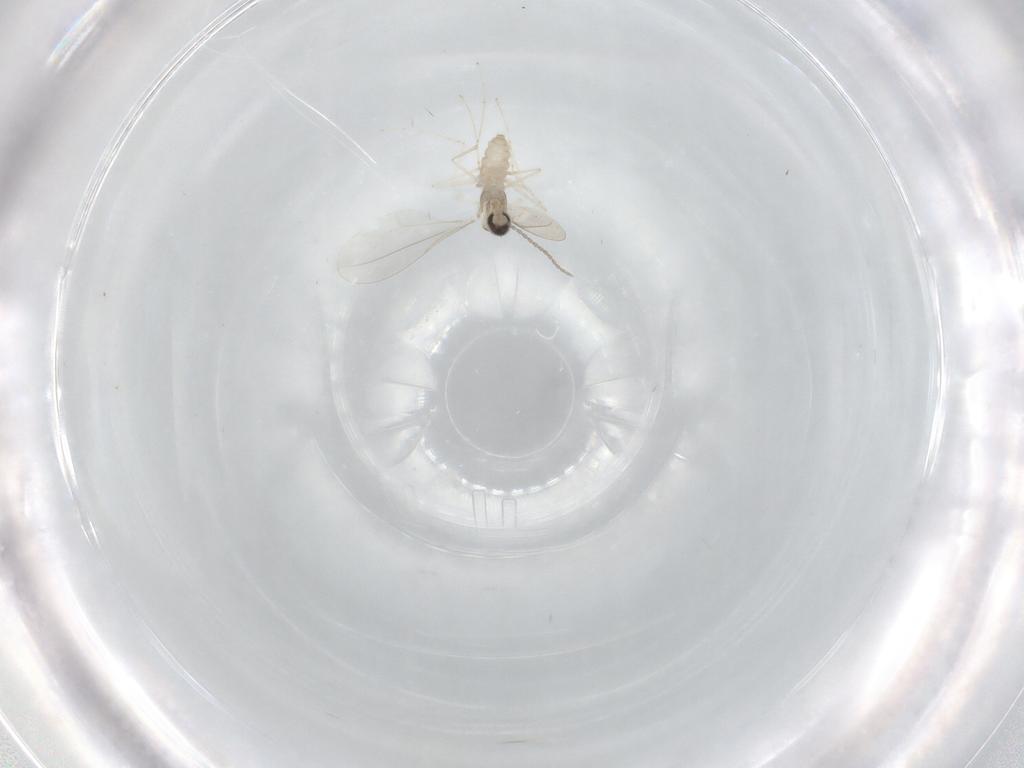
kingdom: Animalia
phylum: Arthropoda
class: Insecta
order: Diptera
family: Cecidomyiidae
